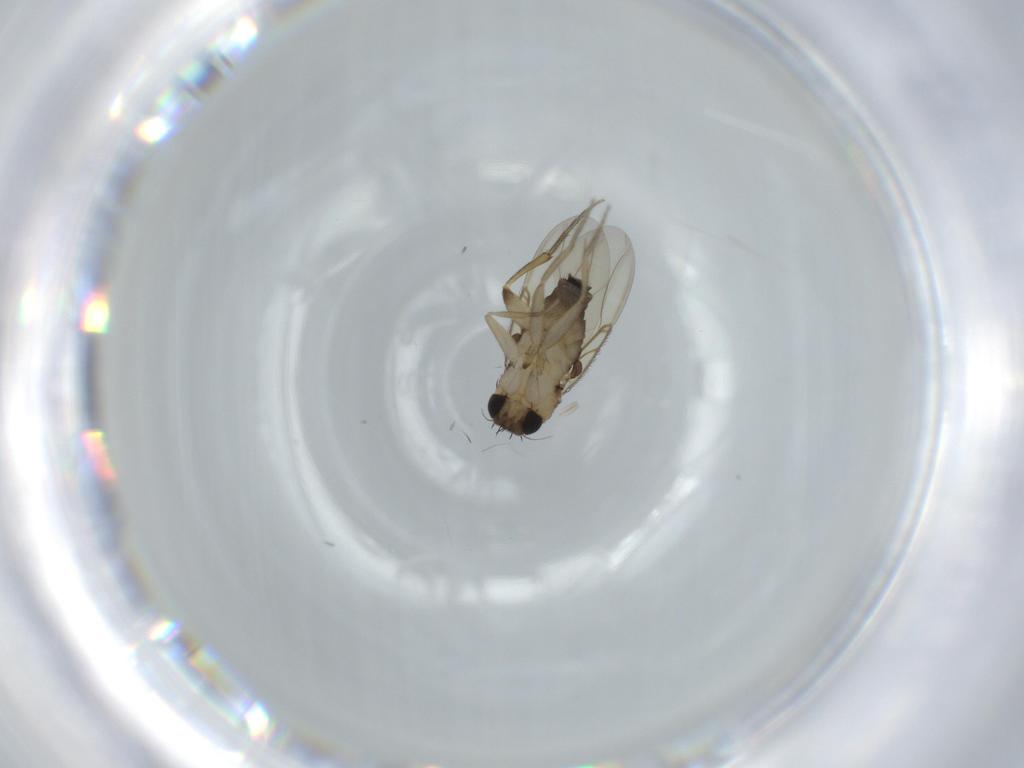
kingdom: Animalia
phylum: Arthropoda
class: Insecta
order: Diptera
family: Phoridae
